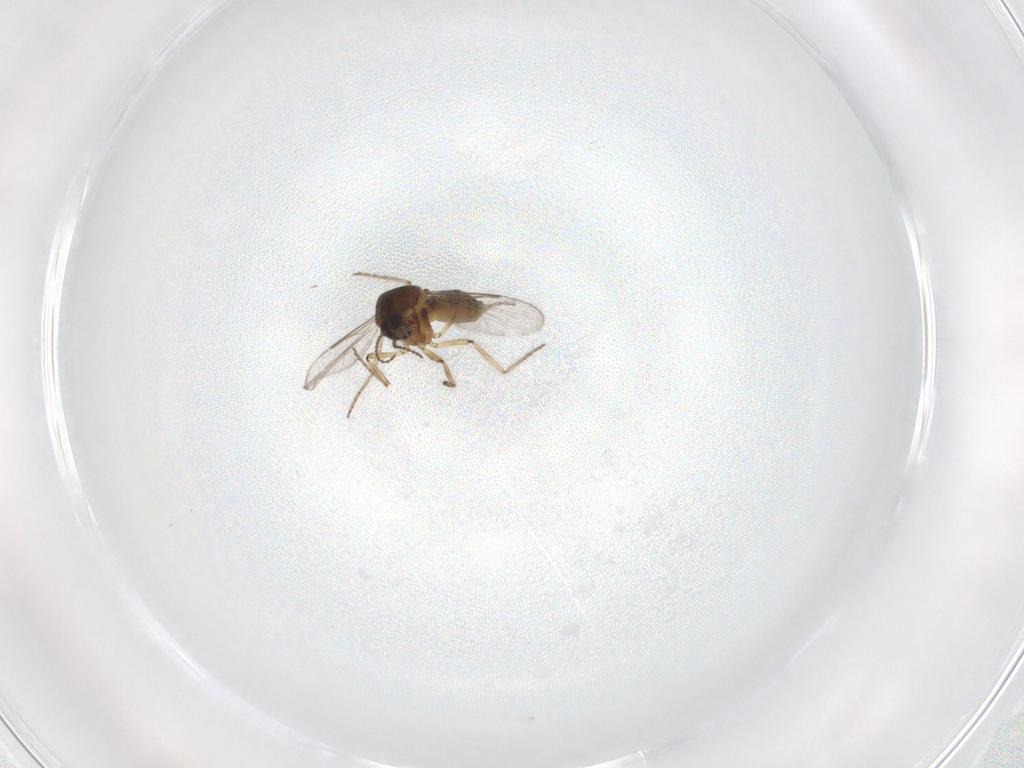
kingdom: Animalia
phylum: Arthropoda
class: Insecta
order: Diptera
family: Ceratopogonidae
